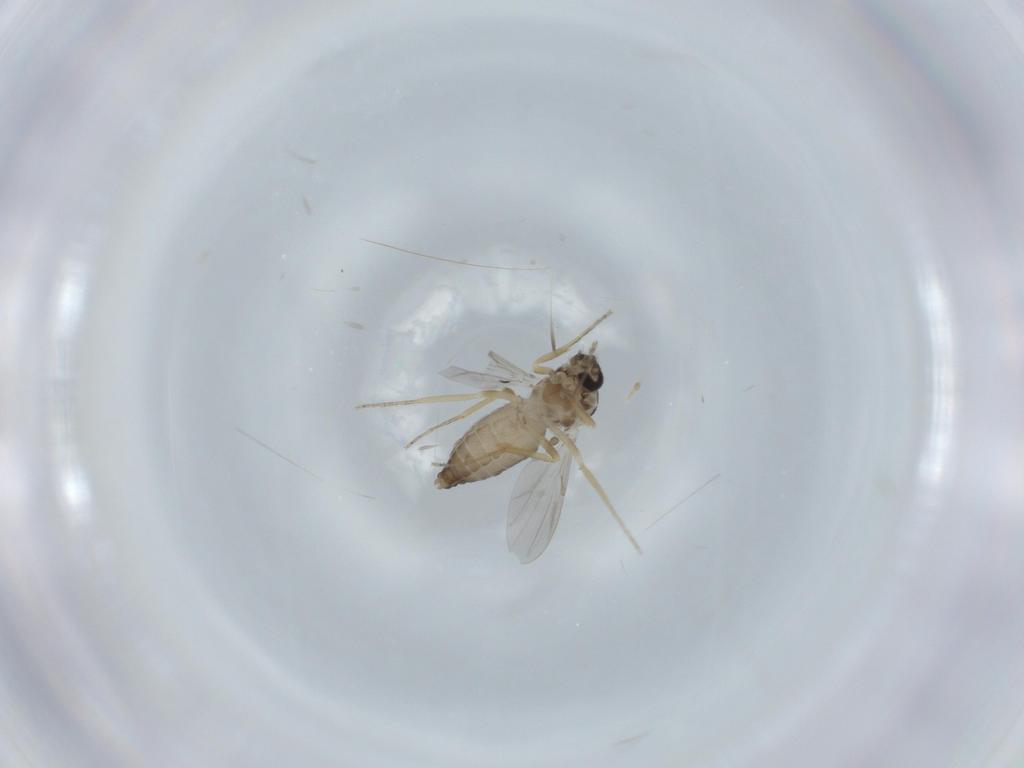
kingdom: Animalia
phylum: Arthropoda
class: Insecta
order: Diptera
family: Ceratopogonidae
